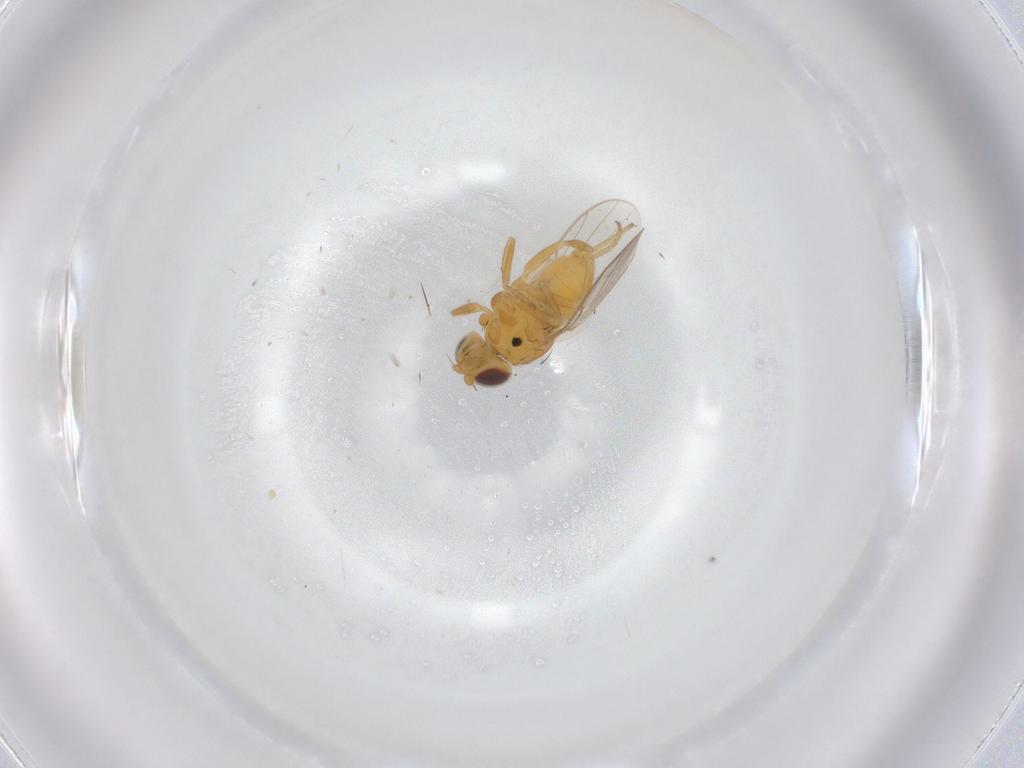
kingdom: Animalia
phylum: Arthropoda
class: Insecta
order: Diptera
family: Chloropidae
